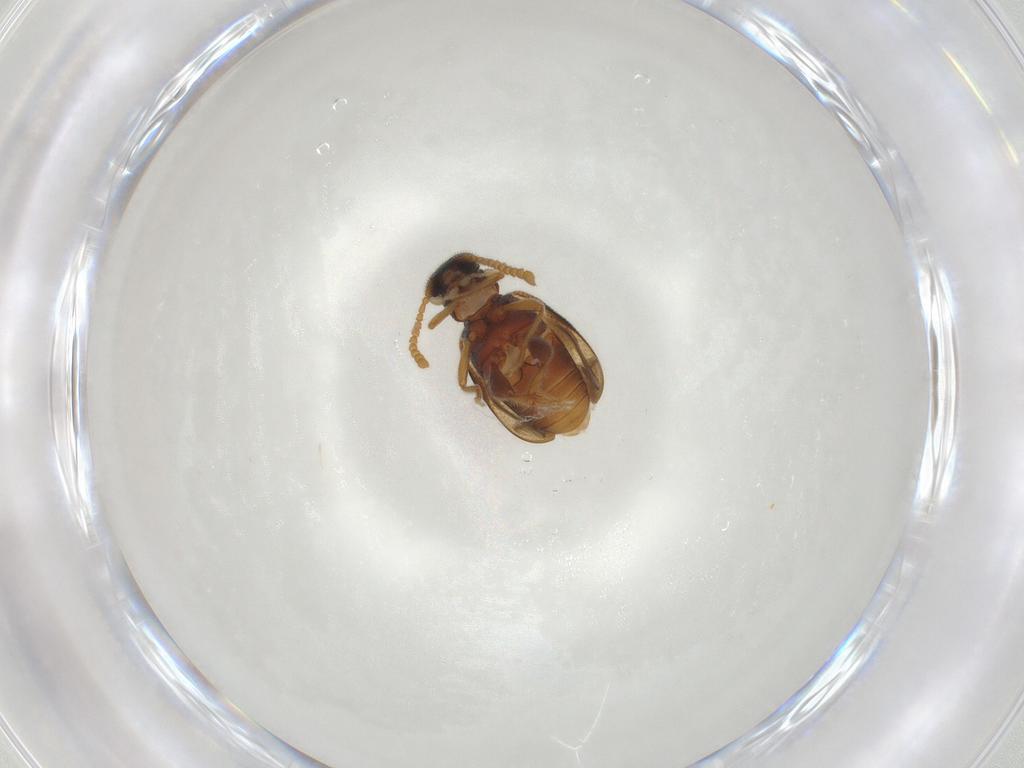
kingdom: Animalia
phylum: Arthropoda
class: Insecta
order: Coleoptera
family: Aderidae
